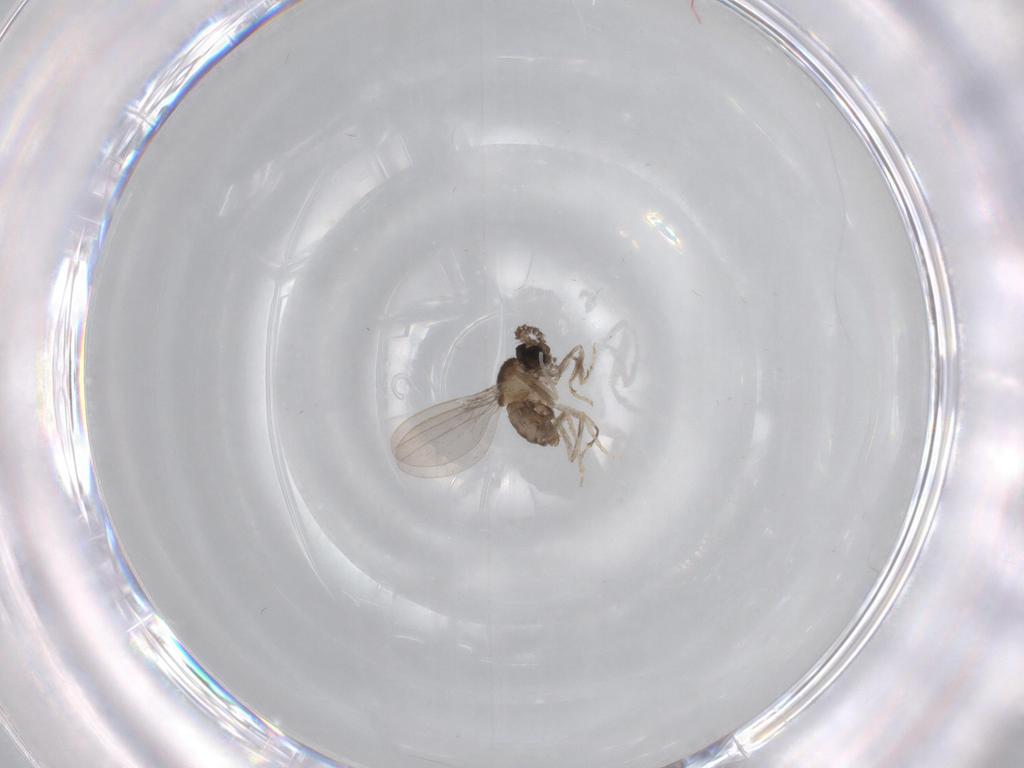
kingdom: Animalia
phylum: Arthropoda
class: Insecta
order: Diptera
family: Cecidomyiidae
